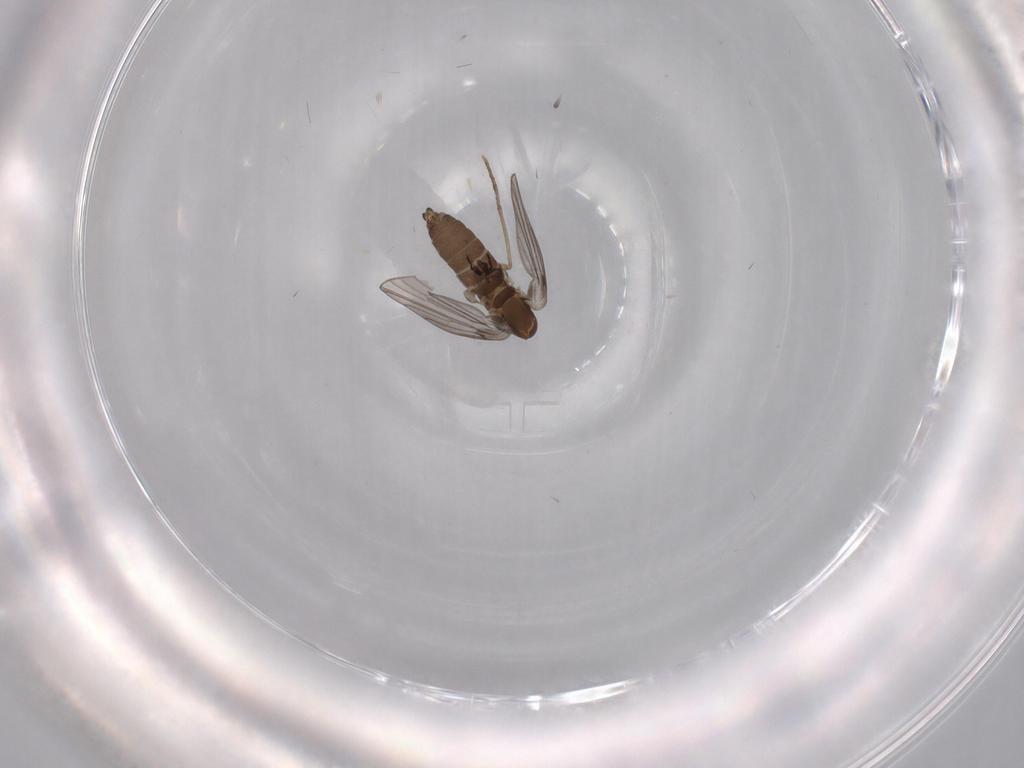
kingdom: Animalia
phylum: Arthropoda
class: Insecta
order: Diptera
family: Psychodidae
